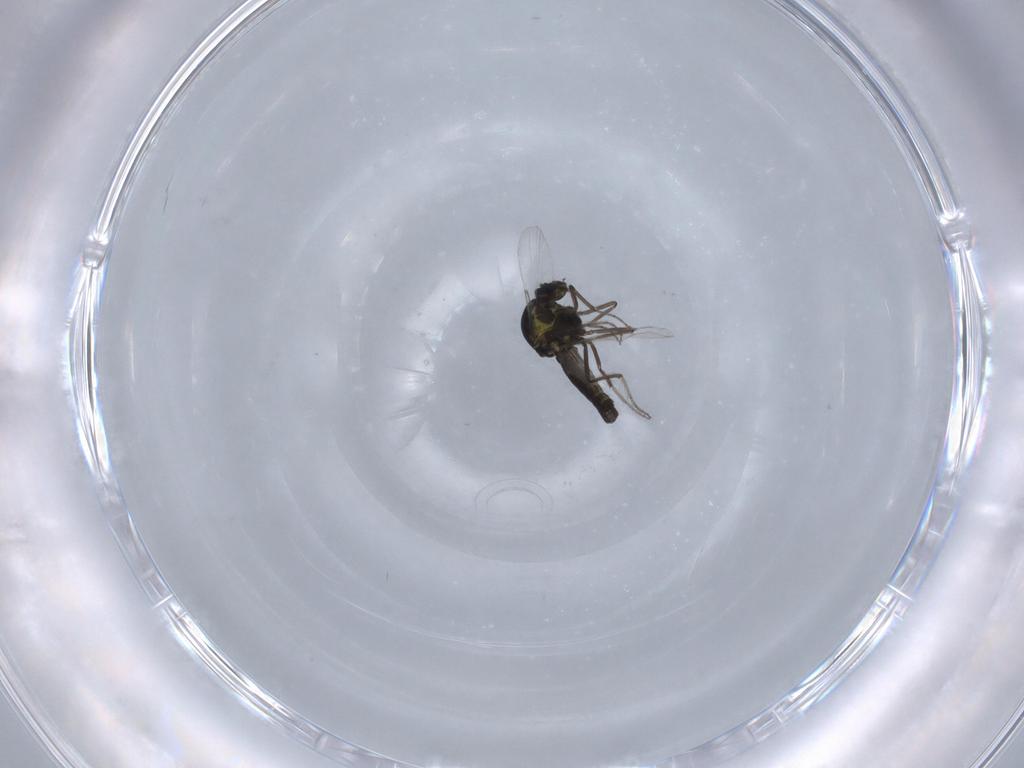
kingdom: Animalia
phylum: Arthropoda
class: Insecta
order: Diptera
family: Ceratopogonidae
